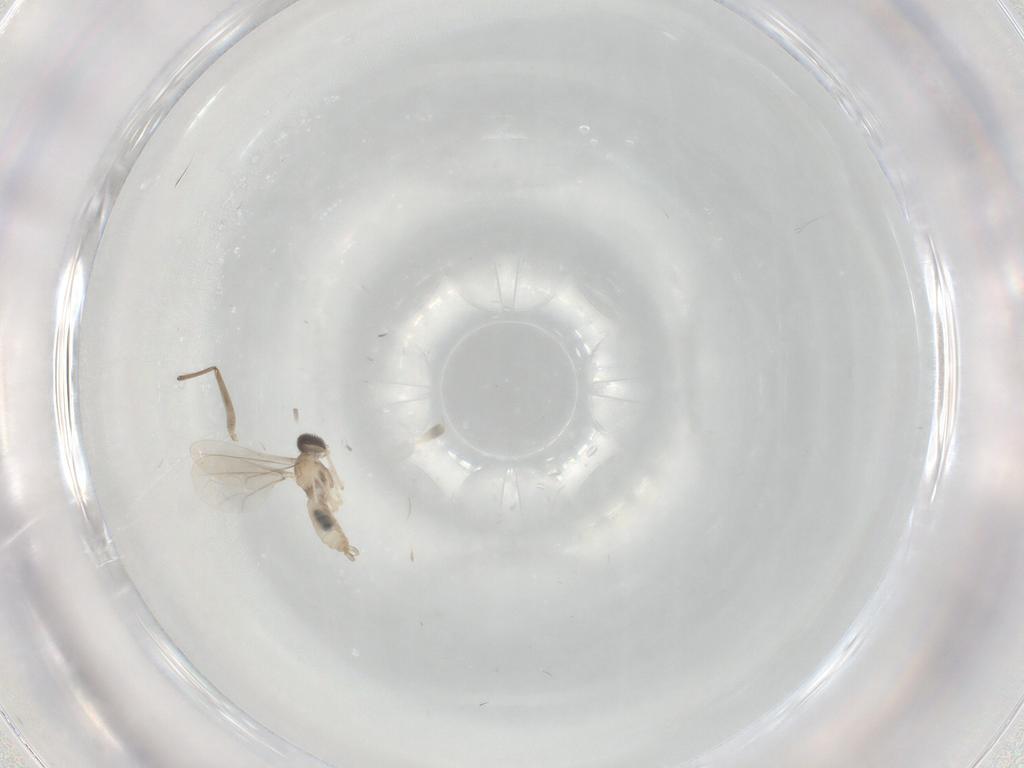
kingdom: Animalia
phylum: Arthropoda
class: Insecta
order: Diptera
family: Cecidomyiidae
